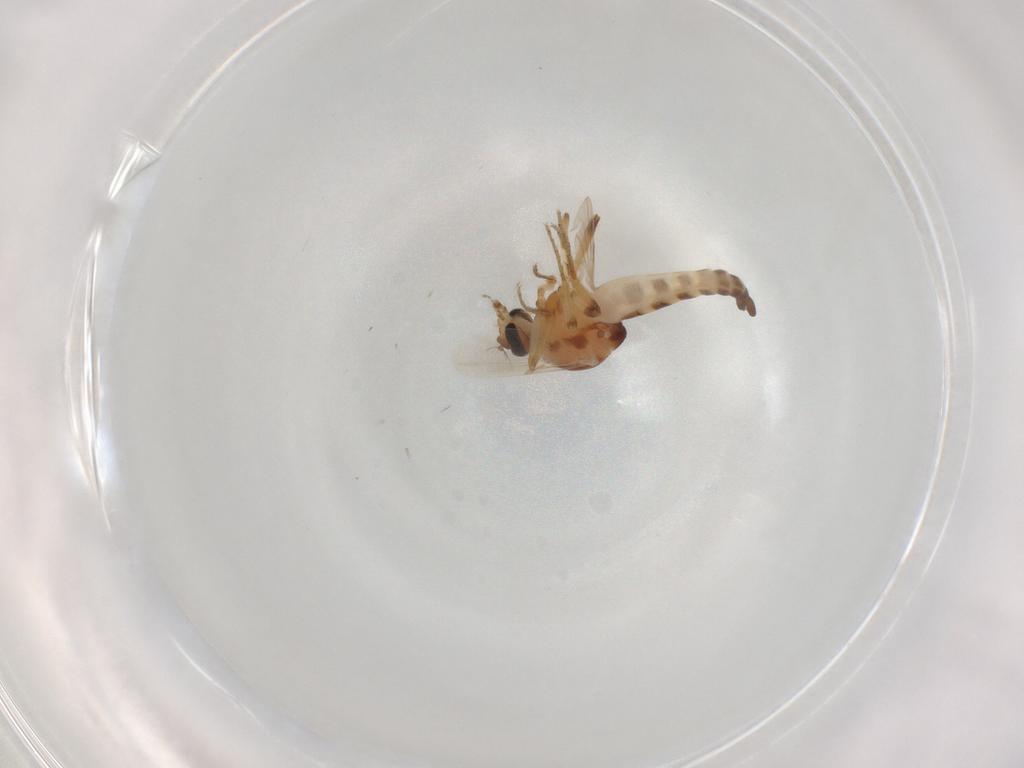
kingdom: Animalia
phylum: Arthropoda
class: Insecta
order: Diptera
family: Ceratopogonidae
